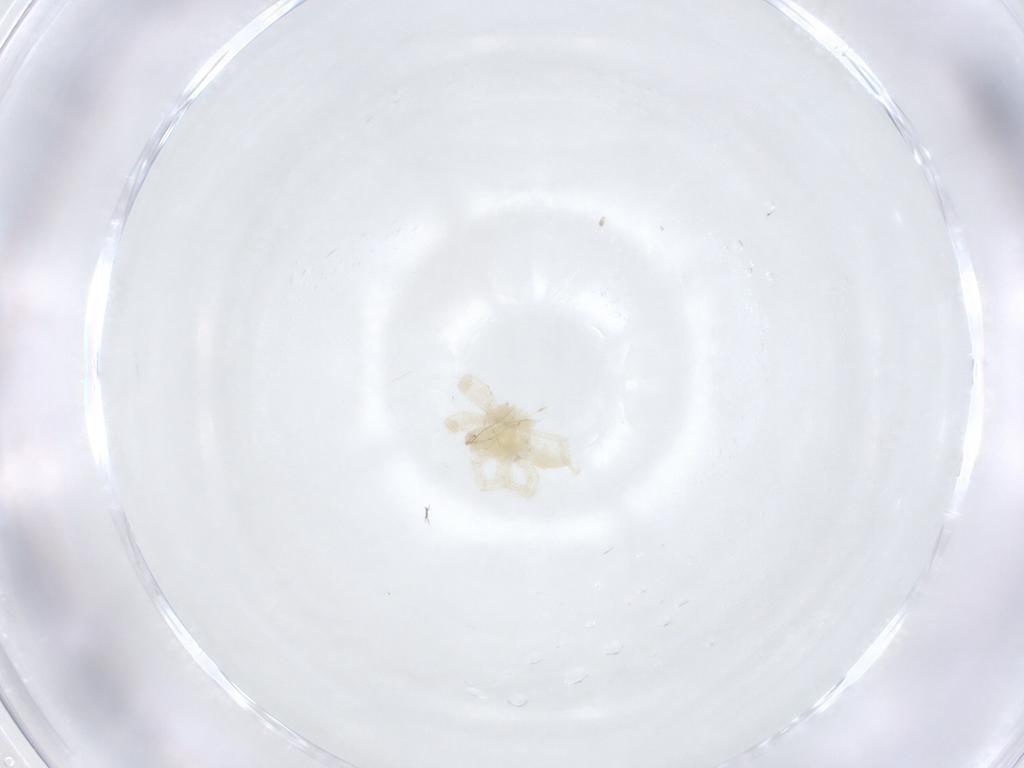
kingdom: Animalia
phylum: Arthropoda
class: Arachnida
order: Trombidiformes
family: Anystidae
